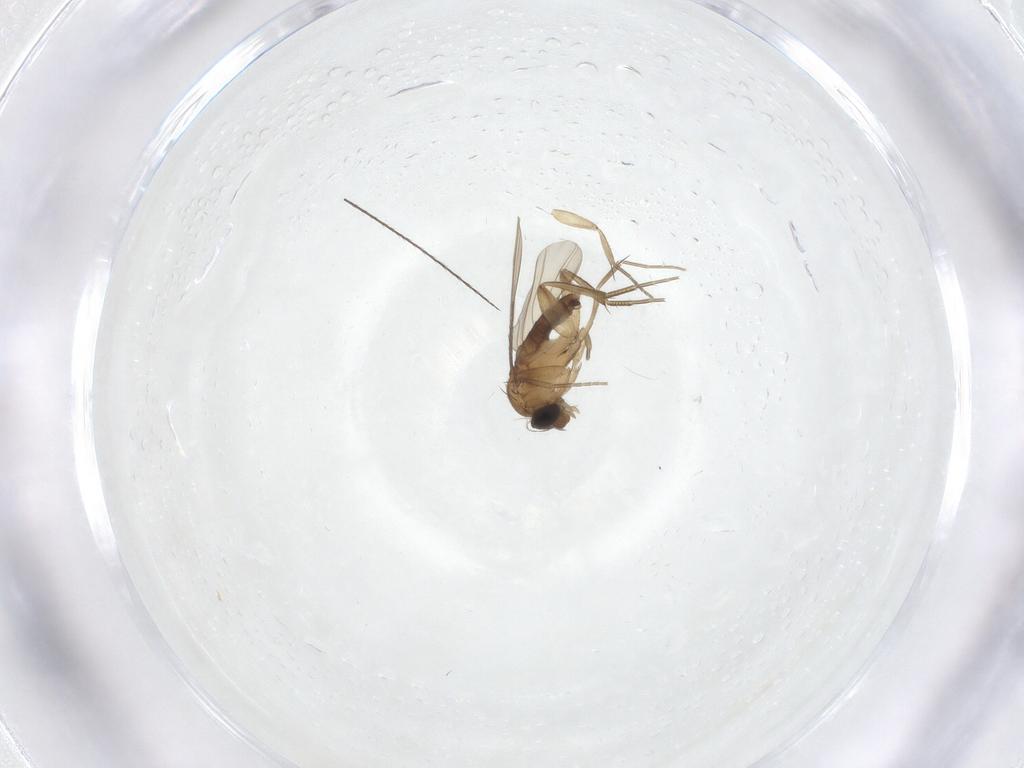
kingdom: Animalia
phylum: Arthropoda
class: Insecta
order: Diptera
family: Phoridae
